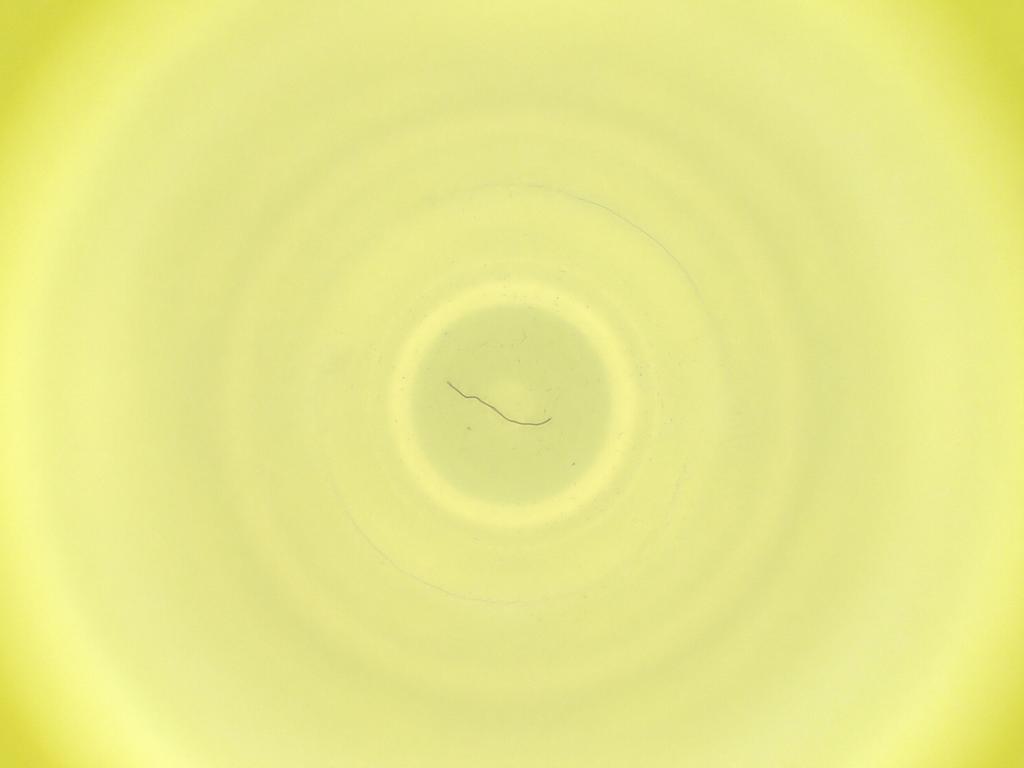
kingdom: Animalia
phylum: Arthropoda
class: Insecta
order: Diptera
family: Cecidomyiidae
